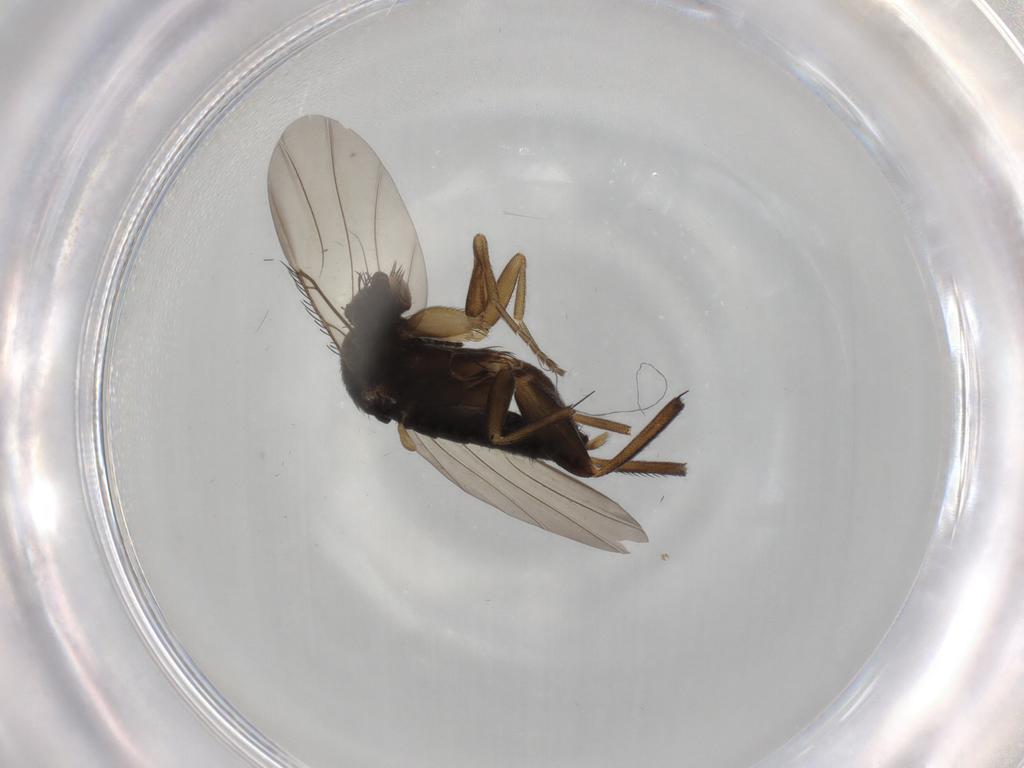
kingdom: Animalia
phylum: Arthropoda
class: Insecta
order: Diptera
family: Phoridae
